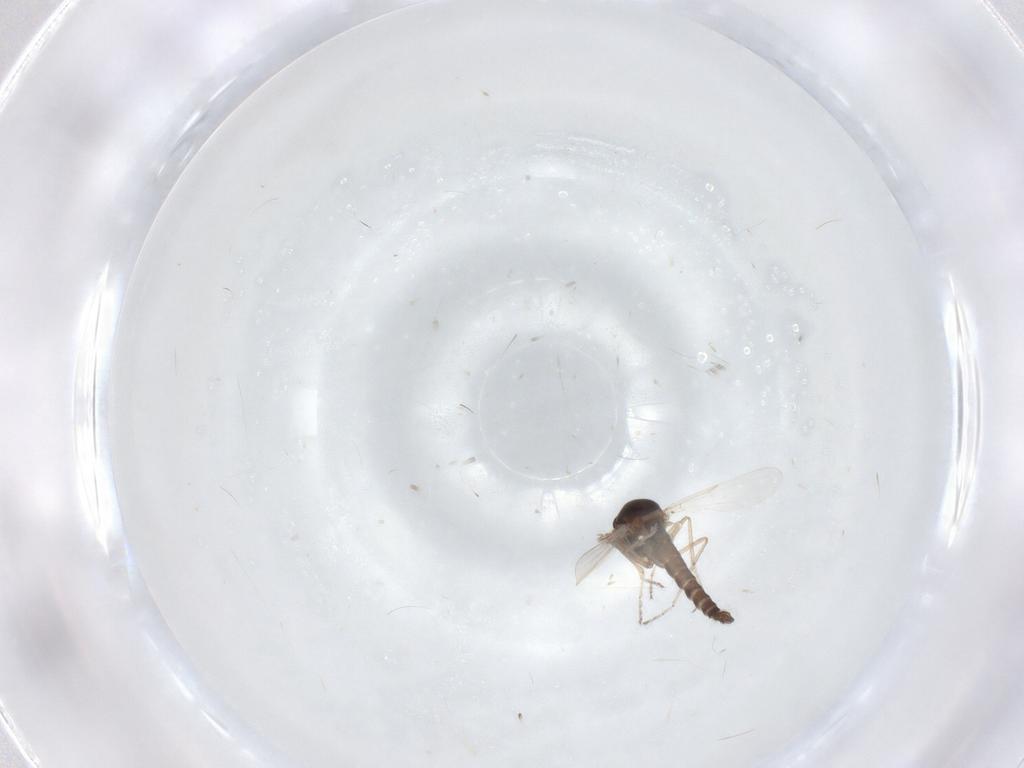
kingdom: Animalia
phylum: Arthropoda
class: Insecta
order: Diptera
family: Ceratopogonidae
